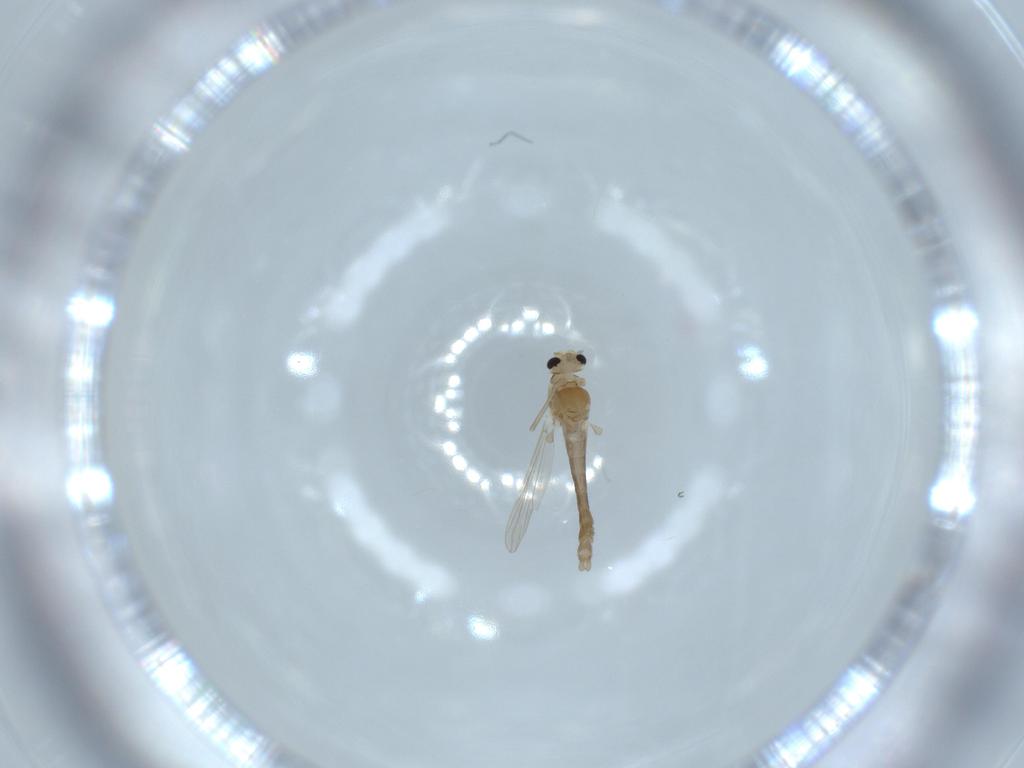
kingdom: Animalia
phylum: Arthropoda
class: Insecta
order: Diptera
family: Chironomidae
